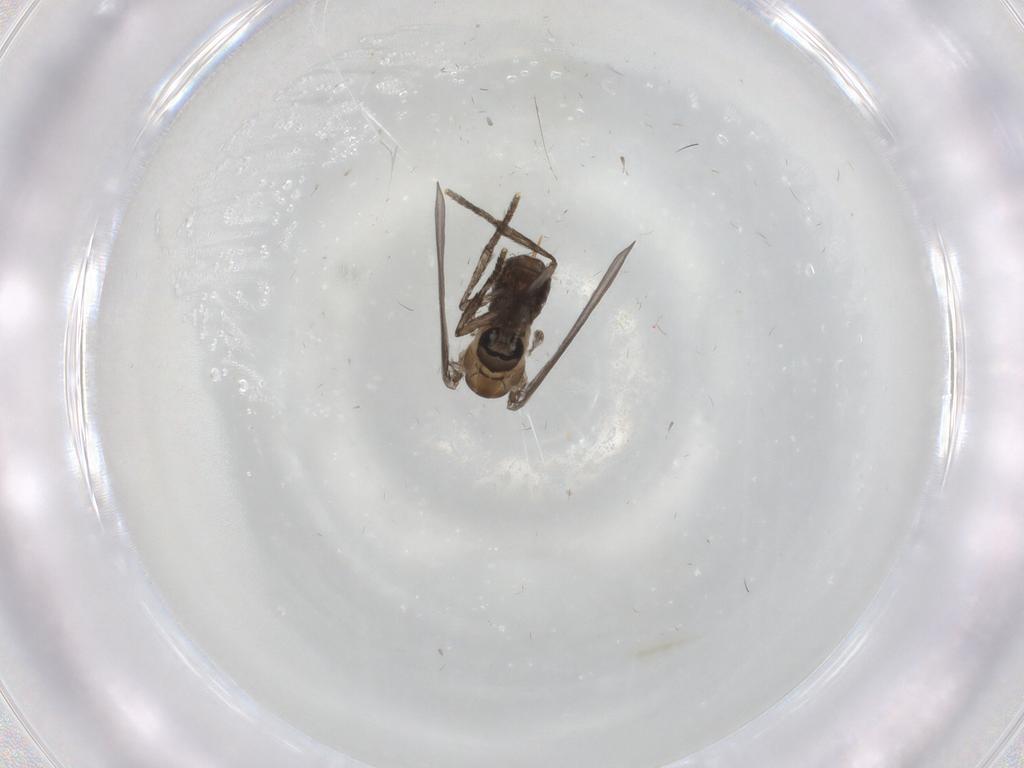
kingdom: Animalia
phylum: Arthropoda
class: Insecta
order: Diptera
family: Psychodidae
